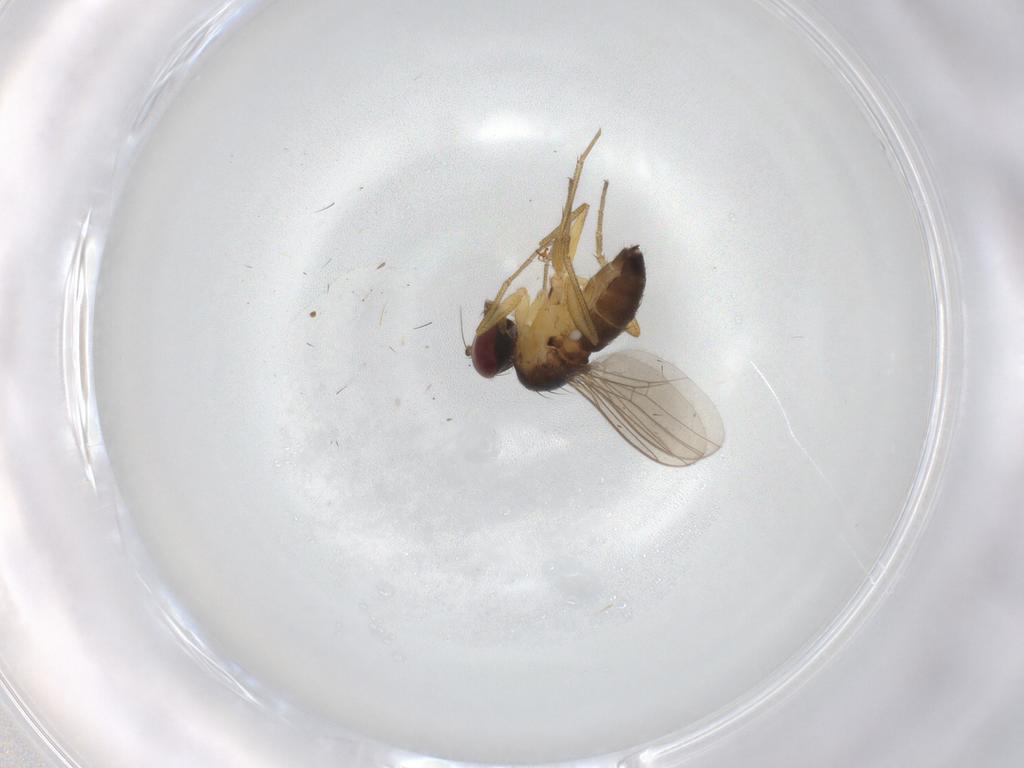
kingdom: Animalia
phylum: Arthropoda
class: Insecta
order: Diptera
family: Dolichopodidae
